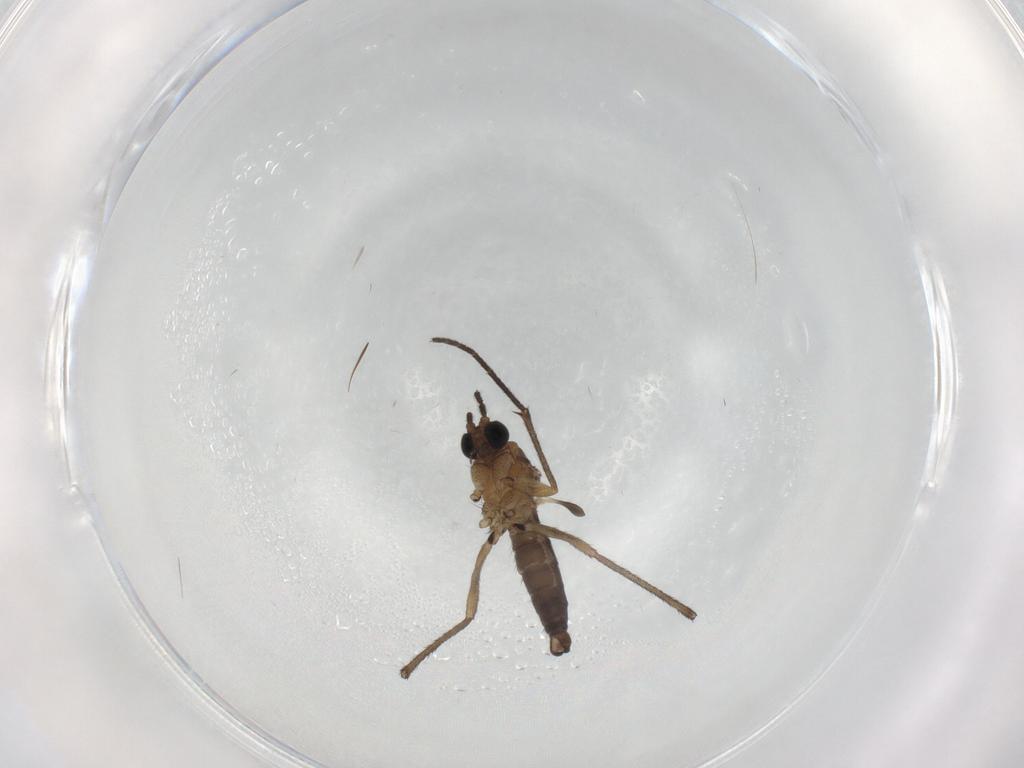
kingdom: Animalia
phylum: Arthropoda
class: Insecta
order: Diptera
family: Sciaridae
